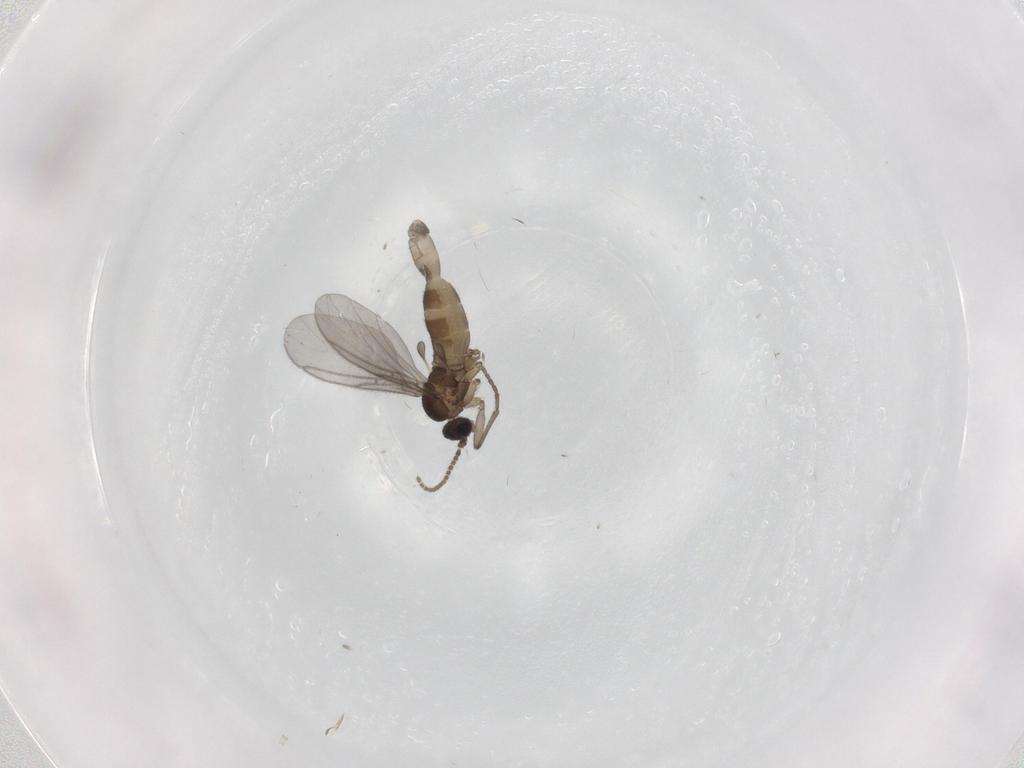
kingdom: Animalia
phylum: Arthropoda
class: Insecta
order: Diptera
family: Sciaridae
